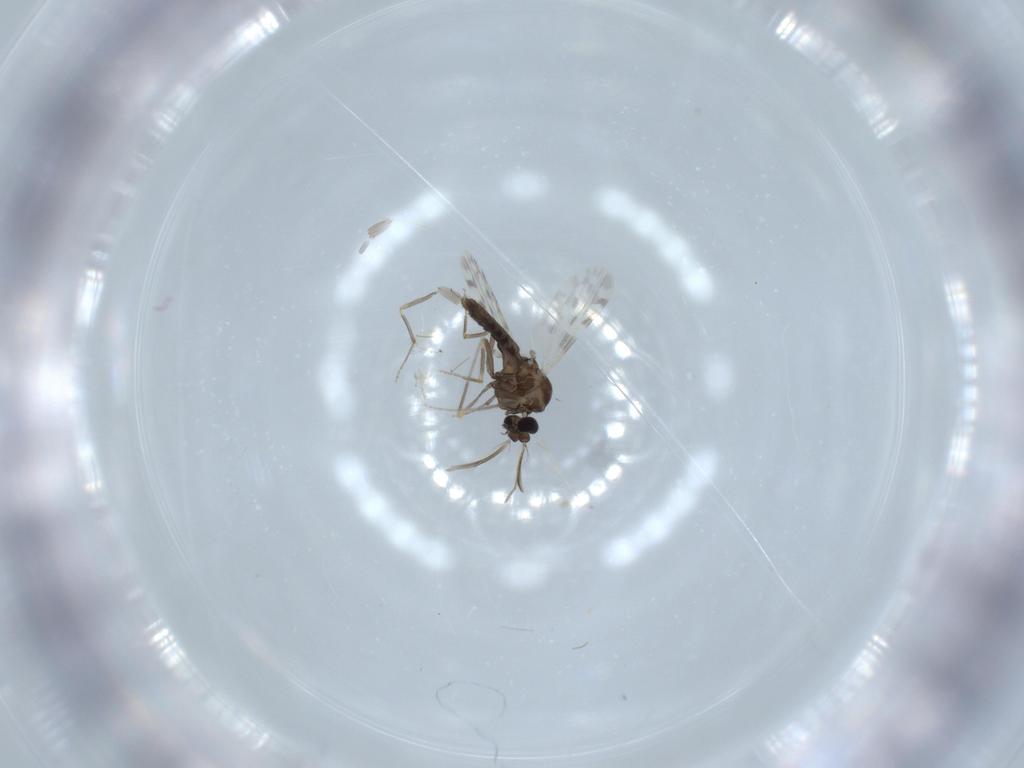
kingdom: Animalia
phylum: Arthropoda
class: Insecta
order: Diptera
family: Ceratopogonidae
